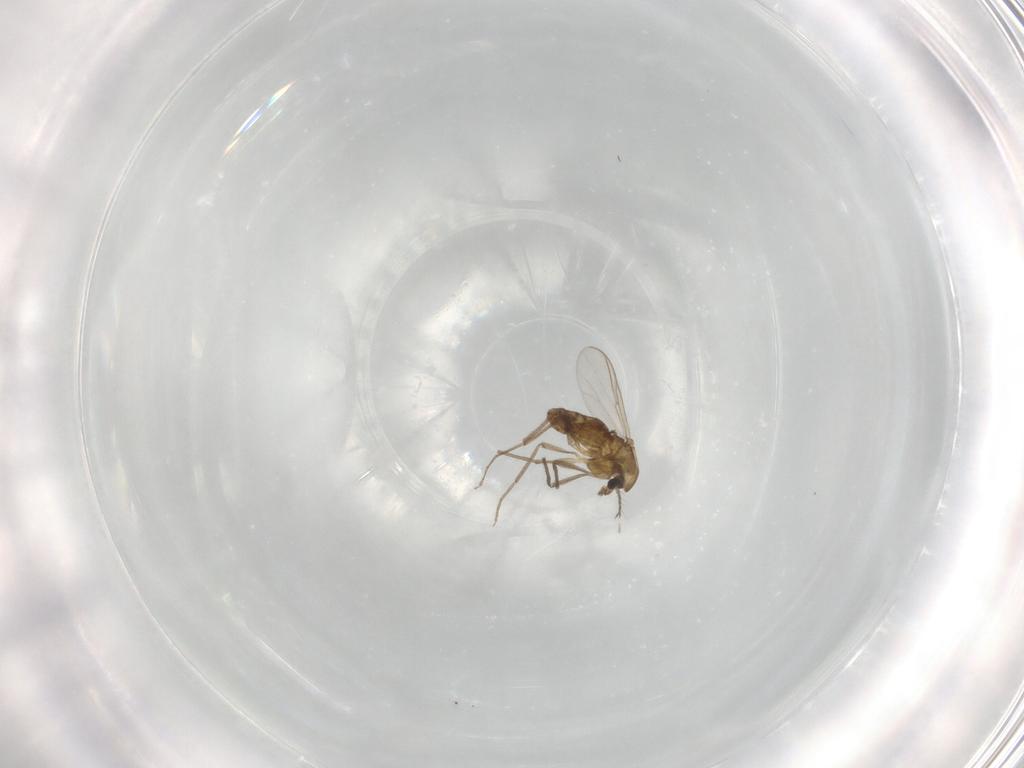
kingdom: Animalia
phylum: Arthropoda
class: Insecta
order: Diptera
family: Chironomidae
